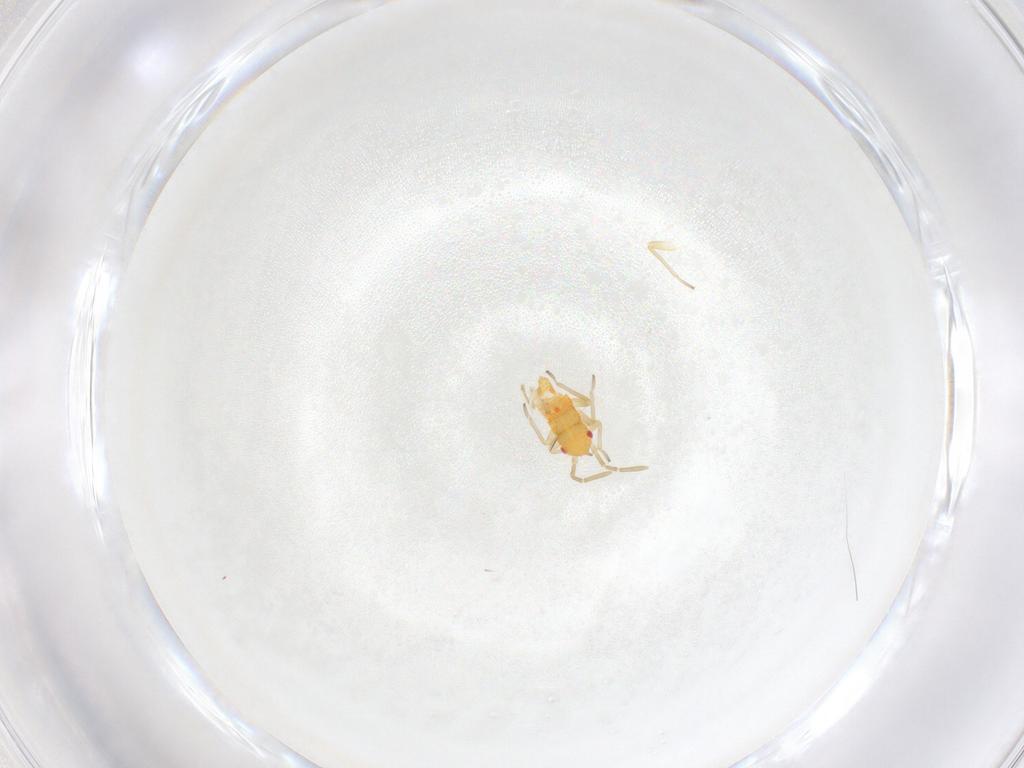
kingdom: Animalia
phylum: Arthropoda
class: Insecta
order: Hemiptera
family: Miridae
